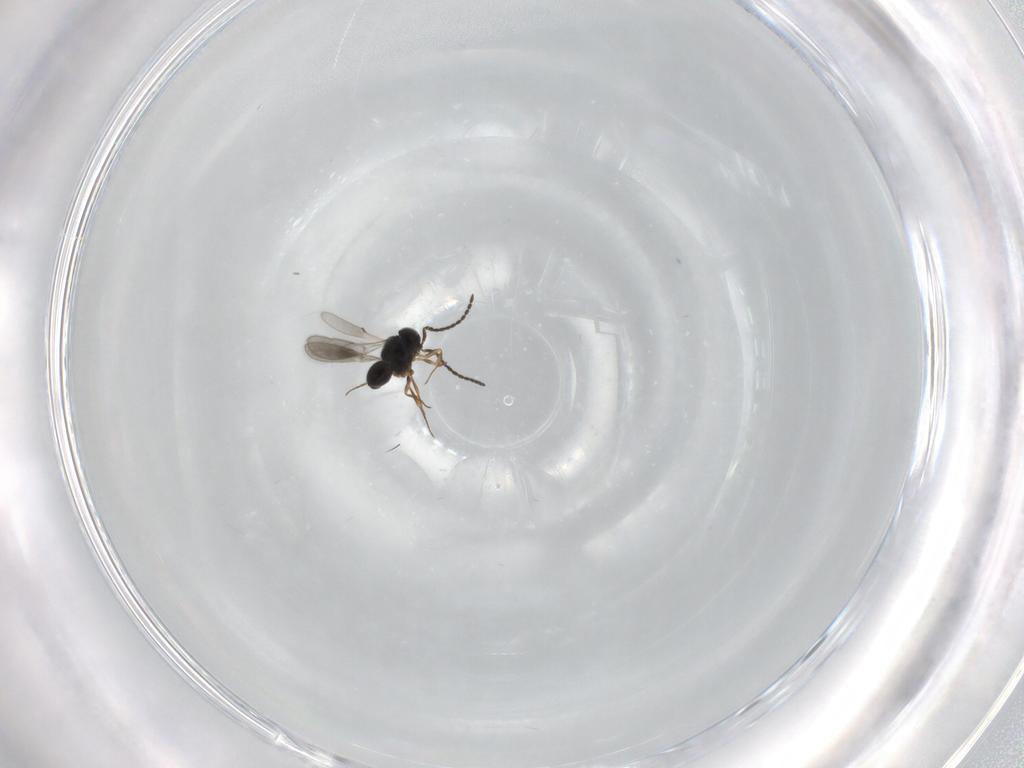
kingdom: Animalia
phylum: Arthropoda
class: Insecta
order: Hymenoptera
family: Scelionidae
